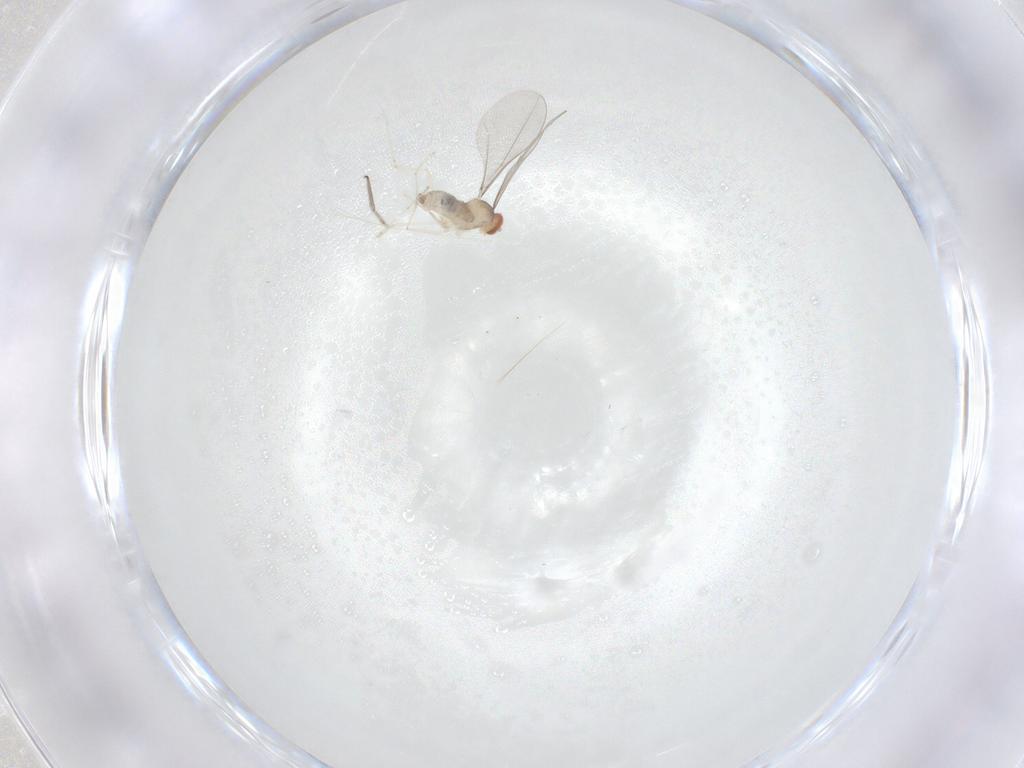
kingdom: Animalia
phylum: Arthropoda
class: Insecta
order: Diptera
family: Cecidomyiidae
